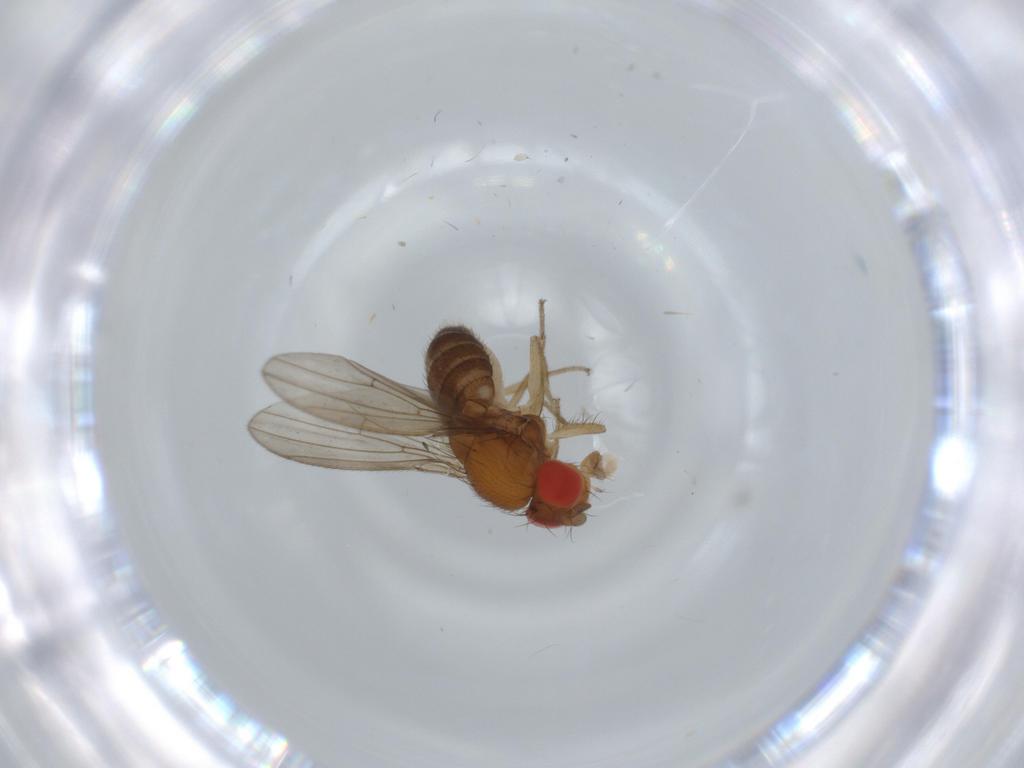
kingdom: Animalia
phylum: Arthropoda
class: Insecta
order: Diptera
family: Drosophilidae
